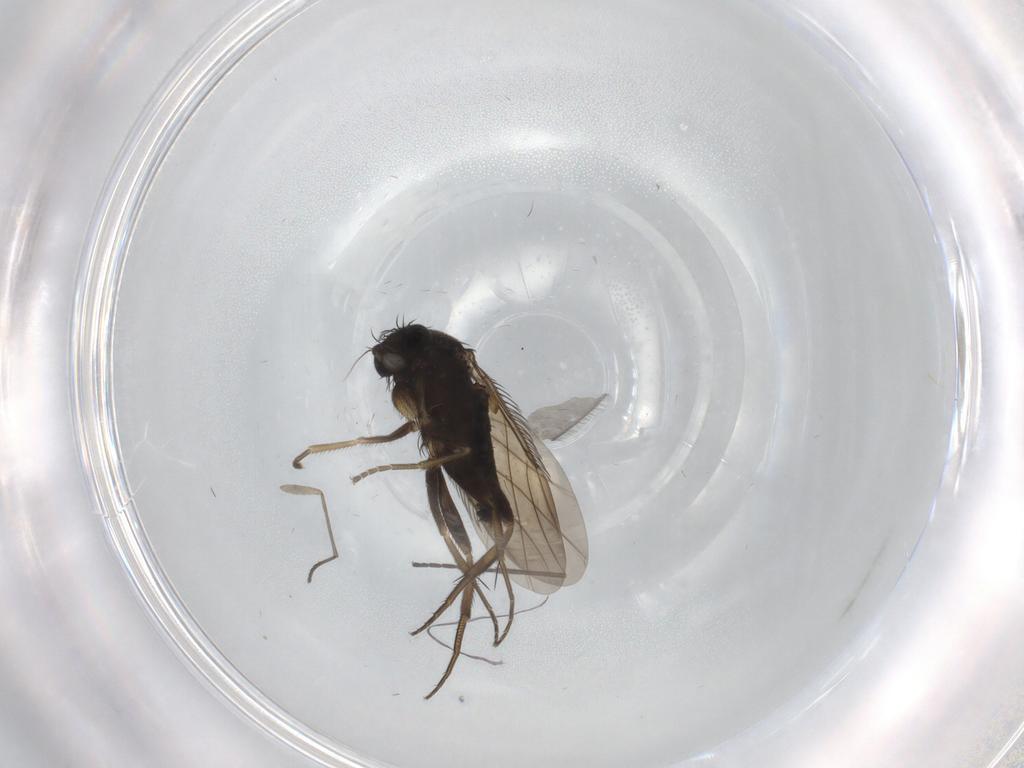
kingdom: Animalia
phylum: Arthropoda
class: Insecta
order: Diptera
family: Phoridae
